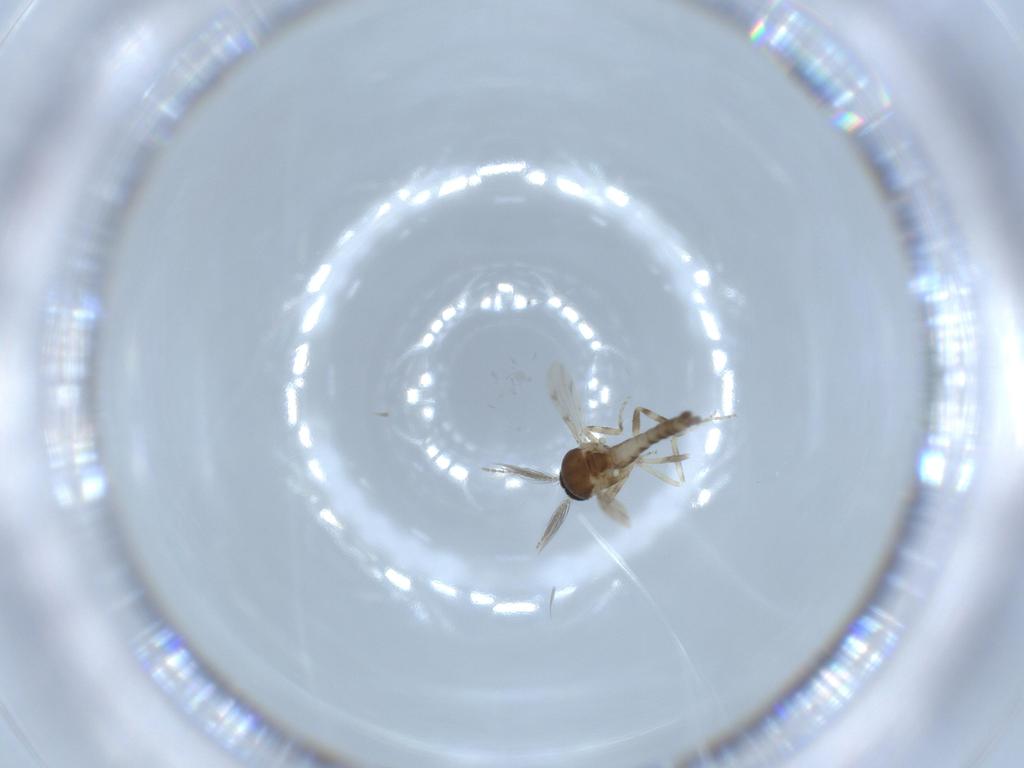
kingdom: Animalia
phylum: Arthropoda
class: Insecta
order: Diptera
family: Ceratopogonidae
